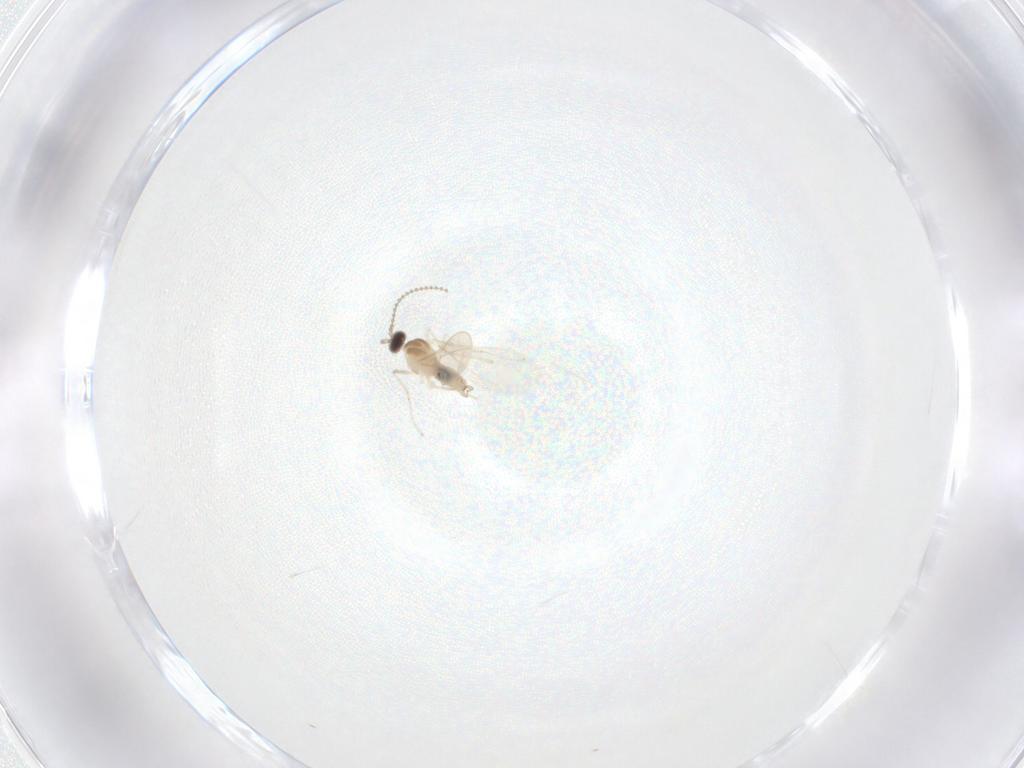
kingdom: Animalia
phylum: Arthropoda
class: Insecta
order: Diptera
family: Cecidomyiidae
